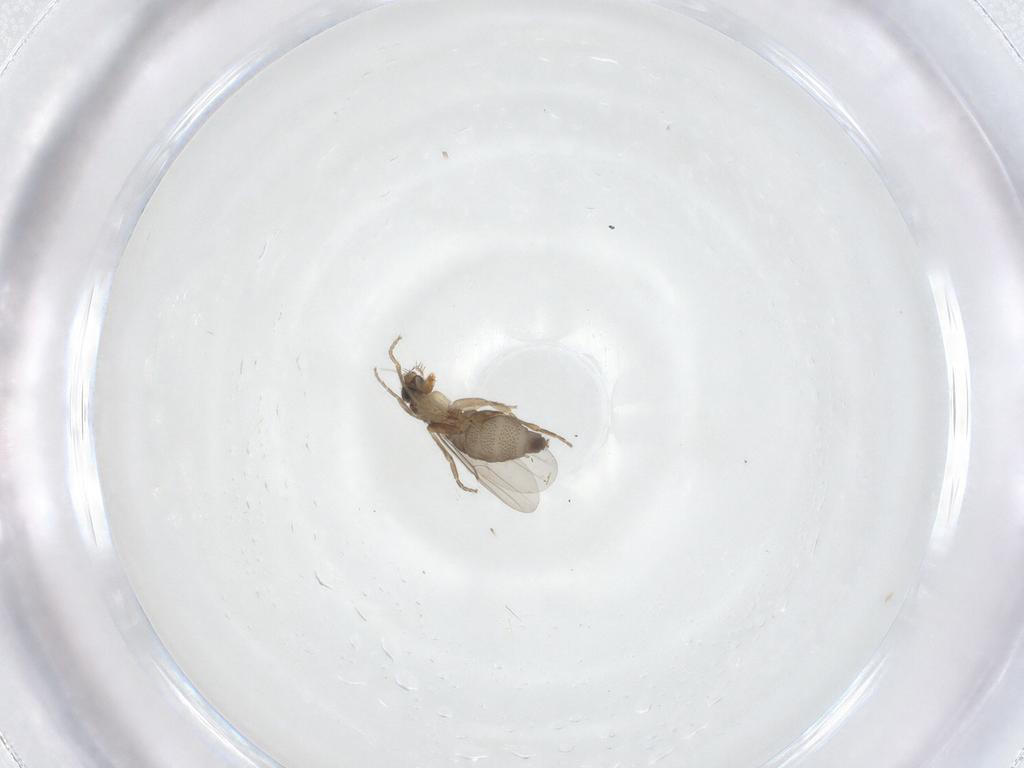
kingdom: Animalia
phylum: Arthropoda
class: Insecta
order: Diptera
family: Phoridae
